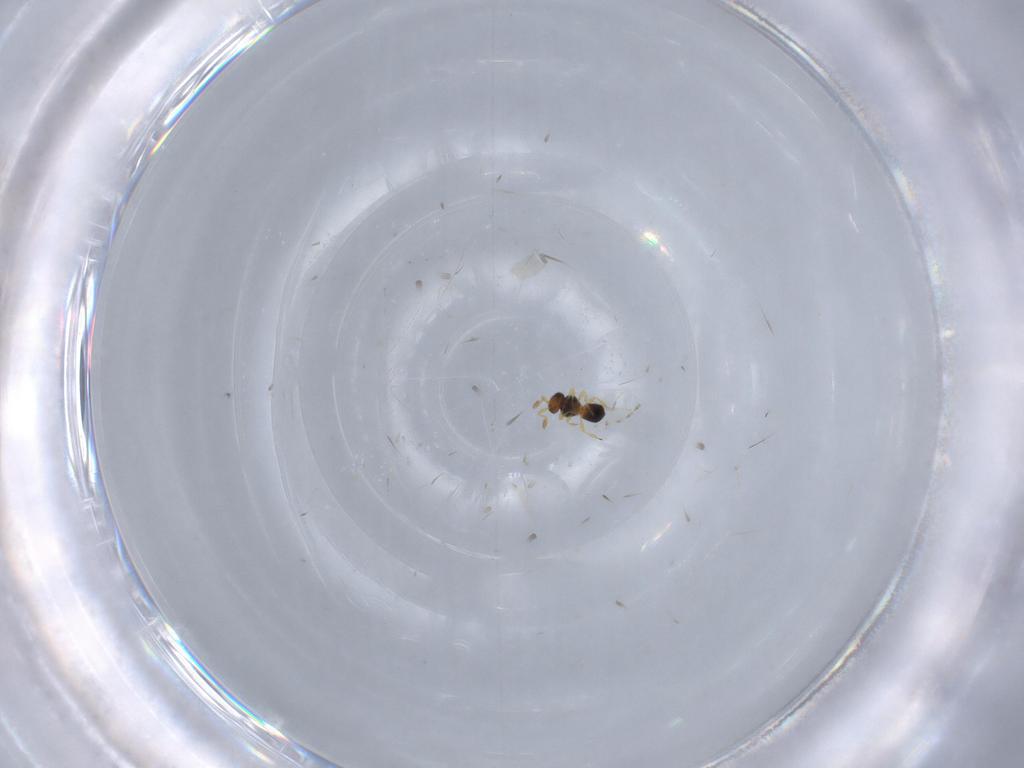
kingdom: Animalia
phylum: Arthropoda
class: Insecta
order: Hymenoptera
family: Platygastridae
